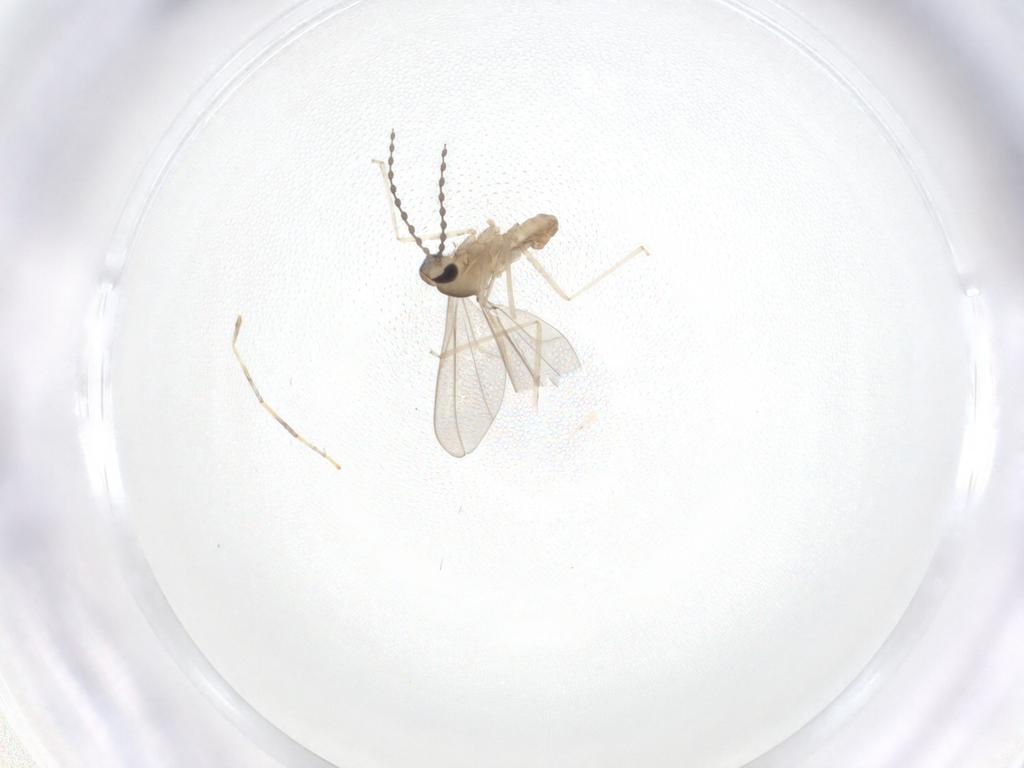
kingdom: Animalia
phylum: Arthropoda
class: Insecta
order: Diptera
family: Cecidomyiidae
